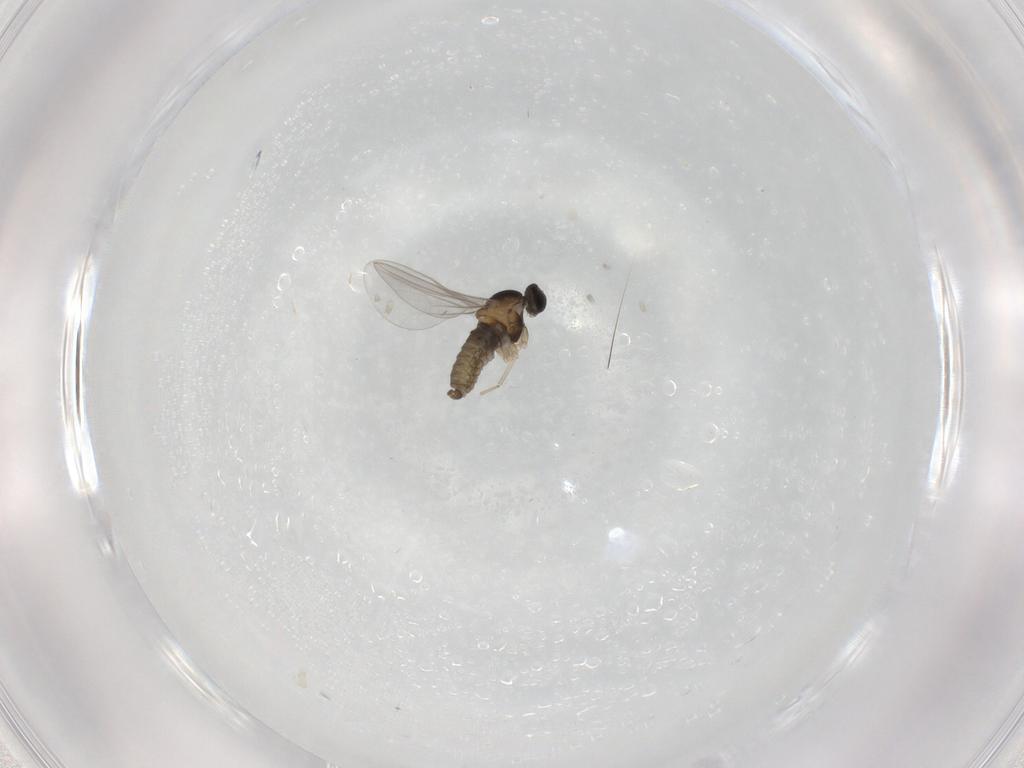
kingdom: Animalia
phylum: Arthropoda
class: Insecta
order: Diptera
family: Cecidomyiidae
